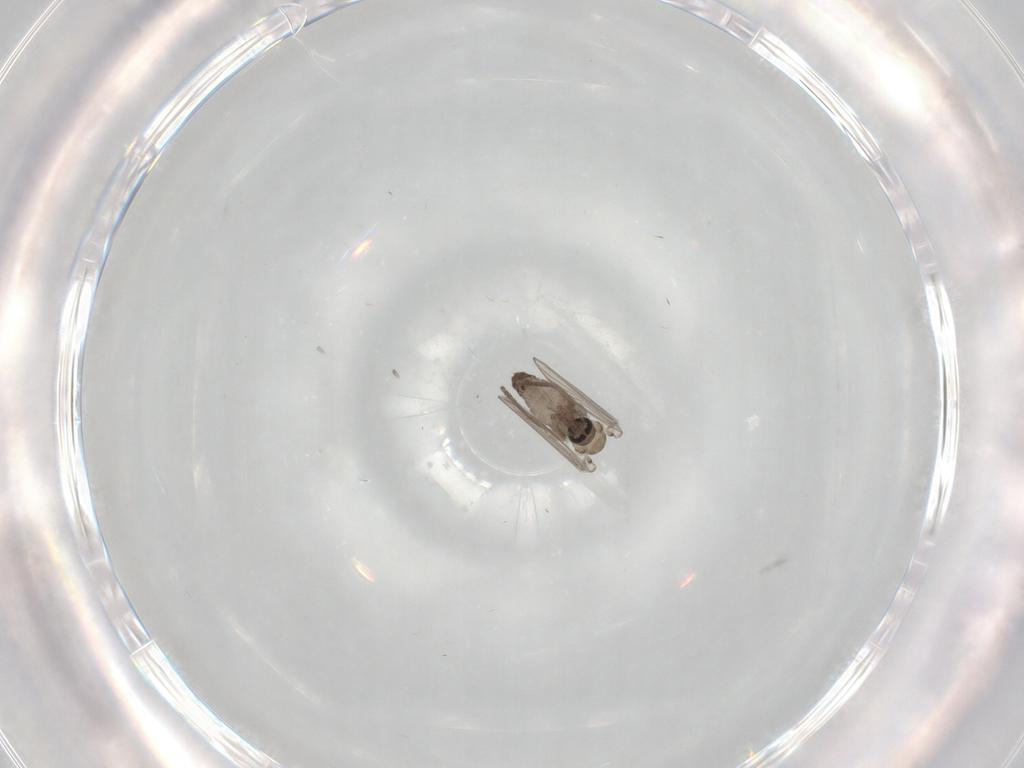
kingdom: Animalia
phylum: Arthropoda
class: Insecta
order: Diptera
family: Psychodidae
